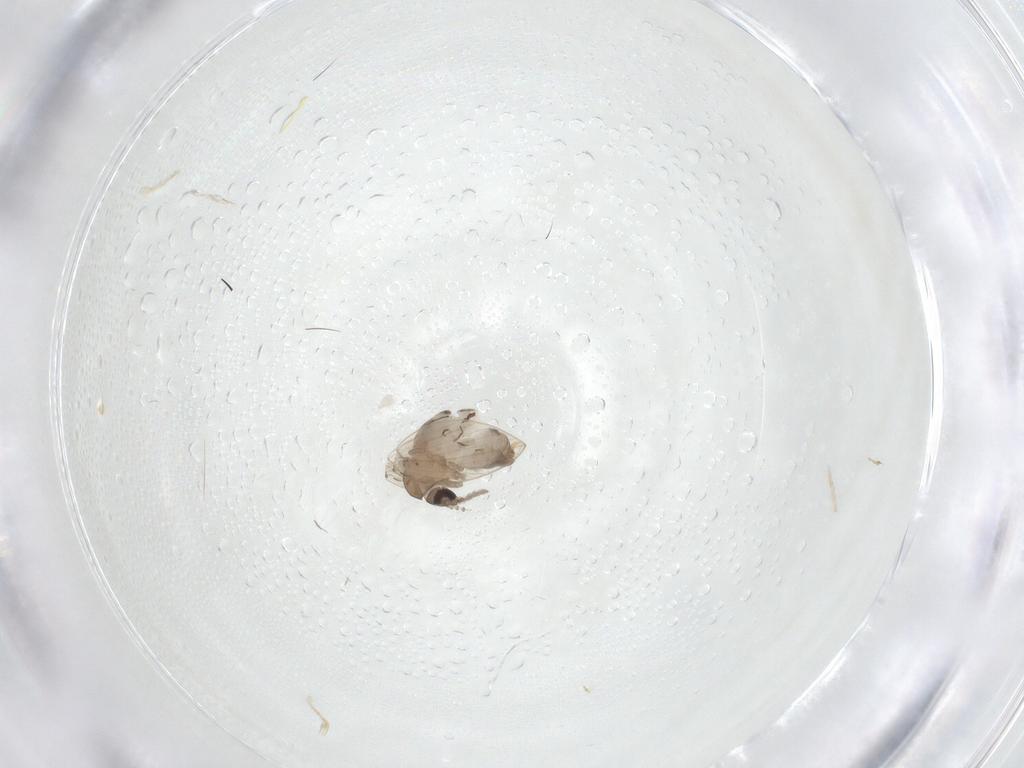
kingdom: Animalia
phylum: Arthropoda
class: Insecta
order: Diptera
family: Psychodidae
